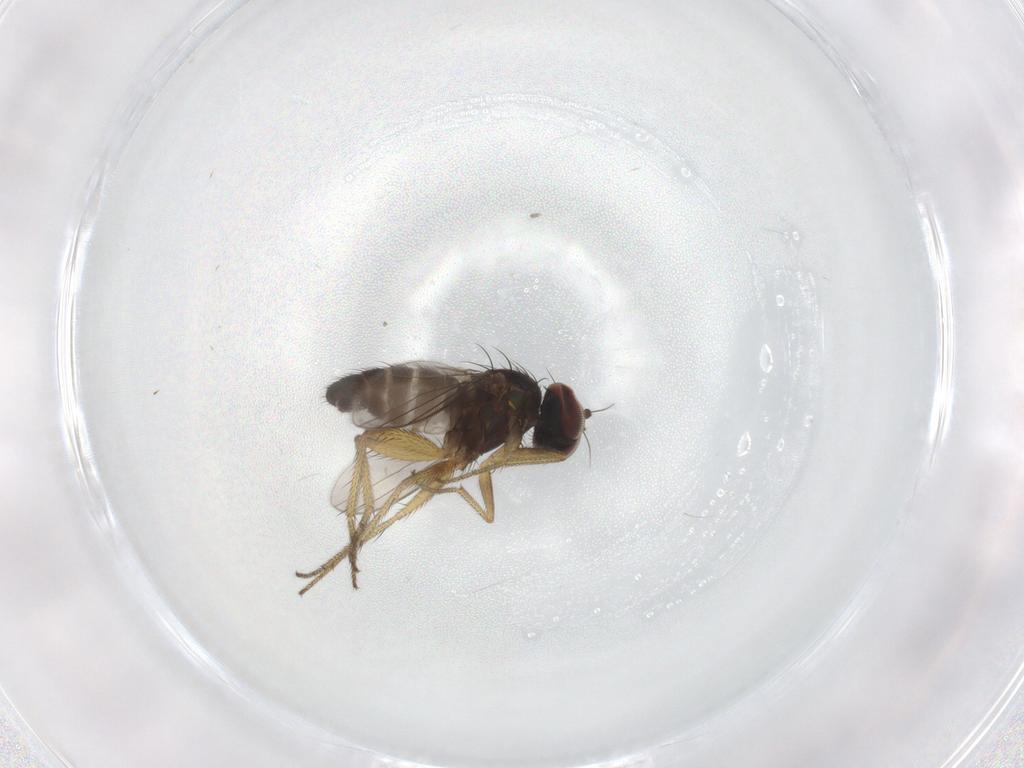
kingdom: Animalia
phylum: Arthropoda
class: Insecta
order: Diptera
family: Dolichopodidae
